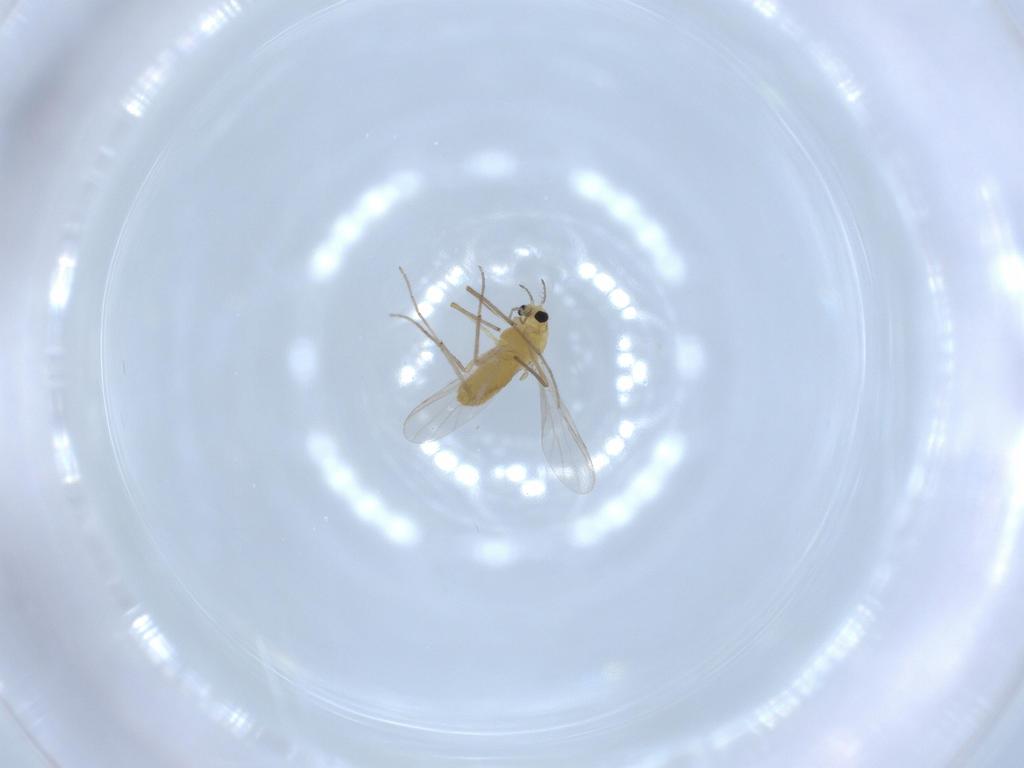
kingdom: Animalia
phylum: Arthropoda
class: Insecta
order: Diptera
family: Chironomidae
